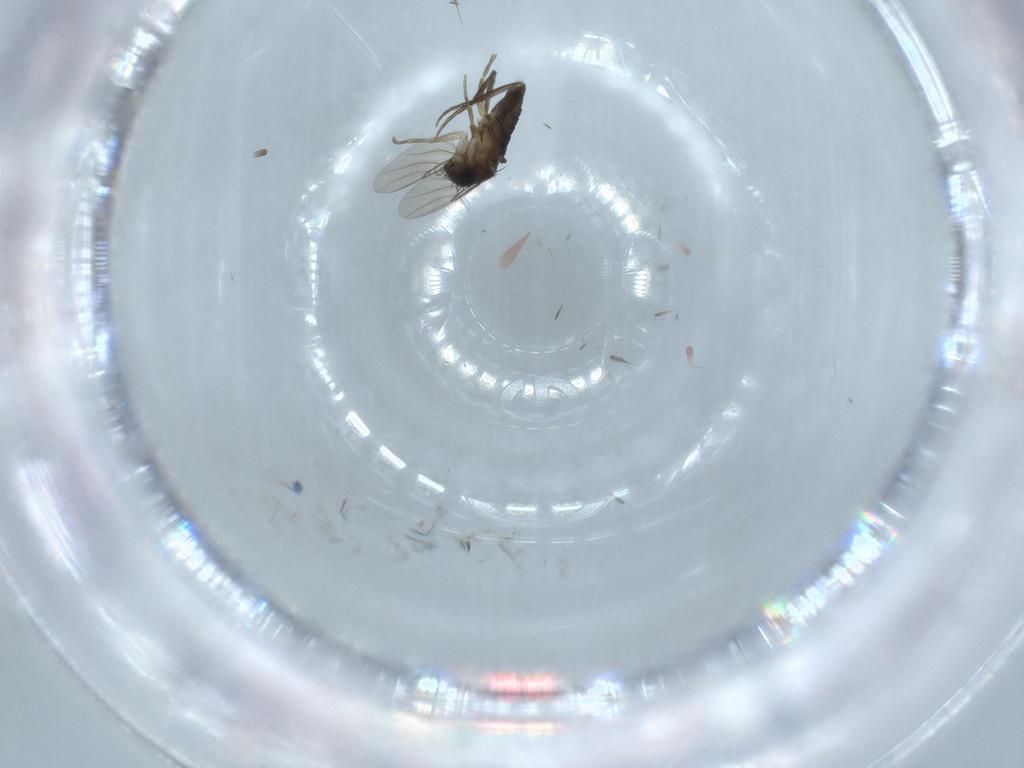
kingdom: Animalia
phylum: Arthropoda
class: Insecta
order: Diptera
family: Phoridae
